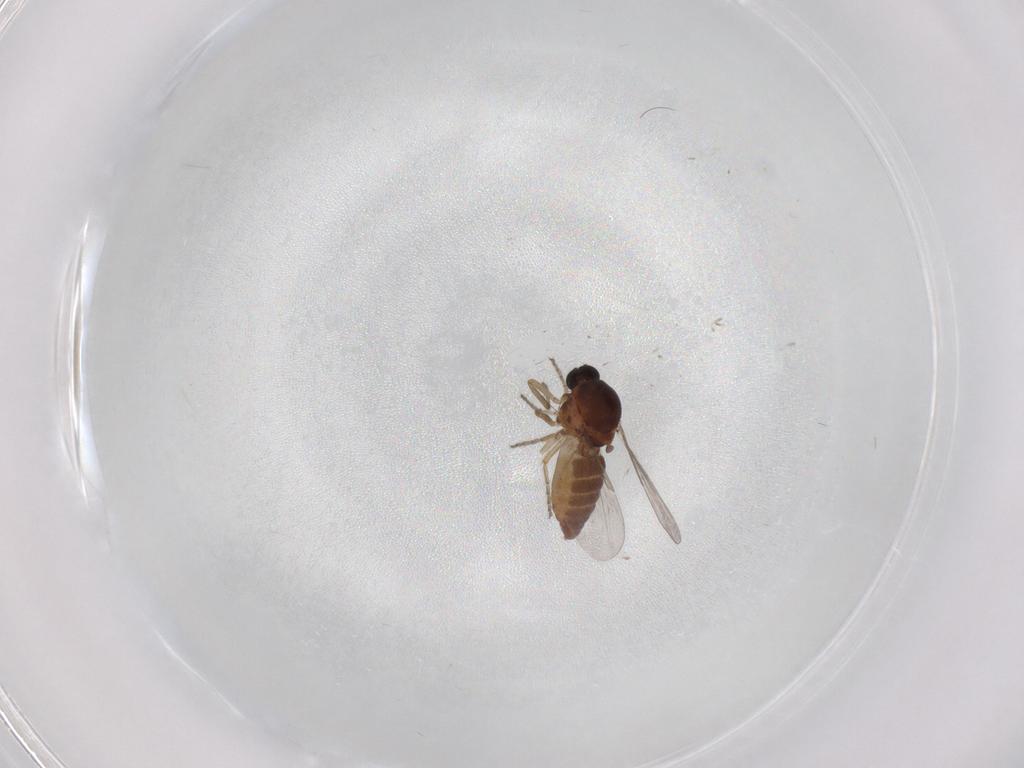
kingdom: Animalia
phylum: Arthropoda
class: Insecta
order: Diptera
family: Ceratopogonidae
